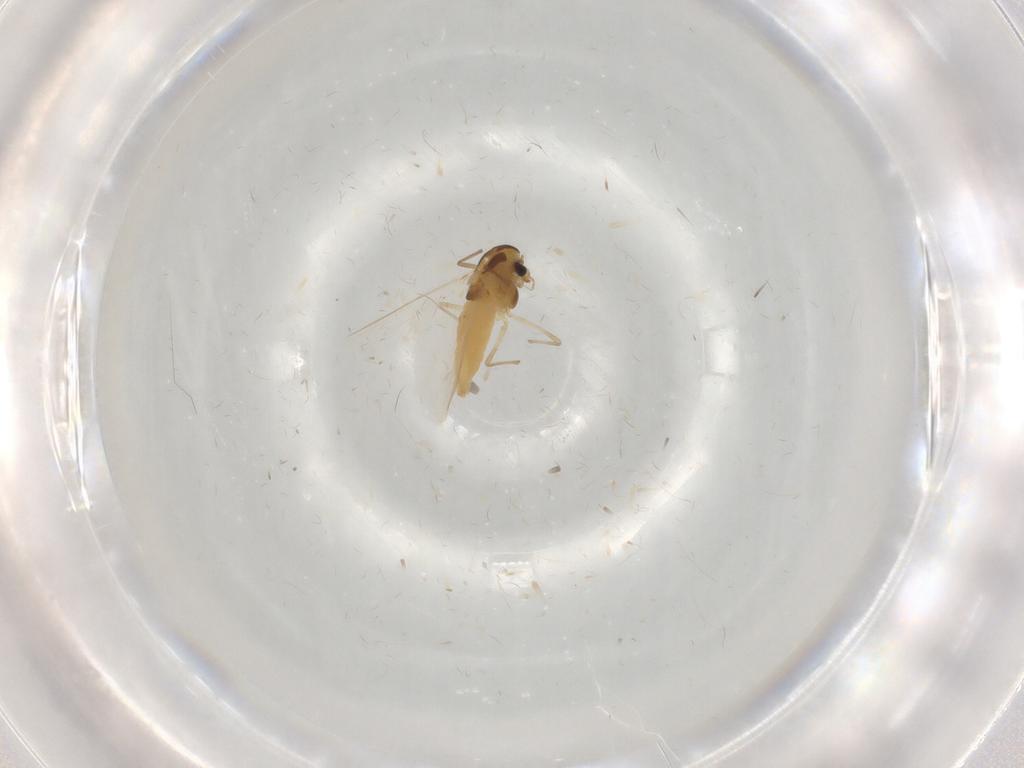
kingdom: Animalia
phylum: Arthropoda
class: Insecta
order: Diptera
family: Chironomidae
